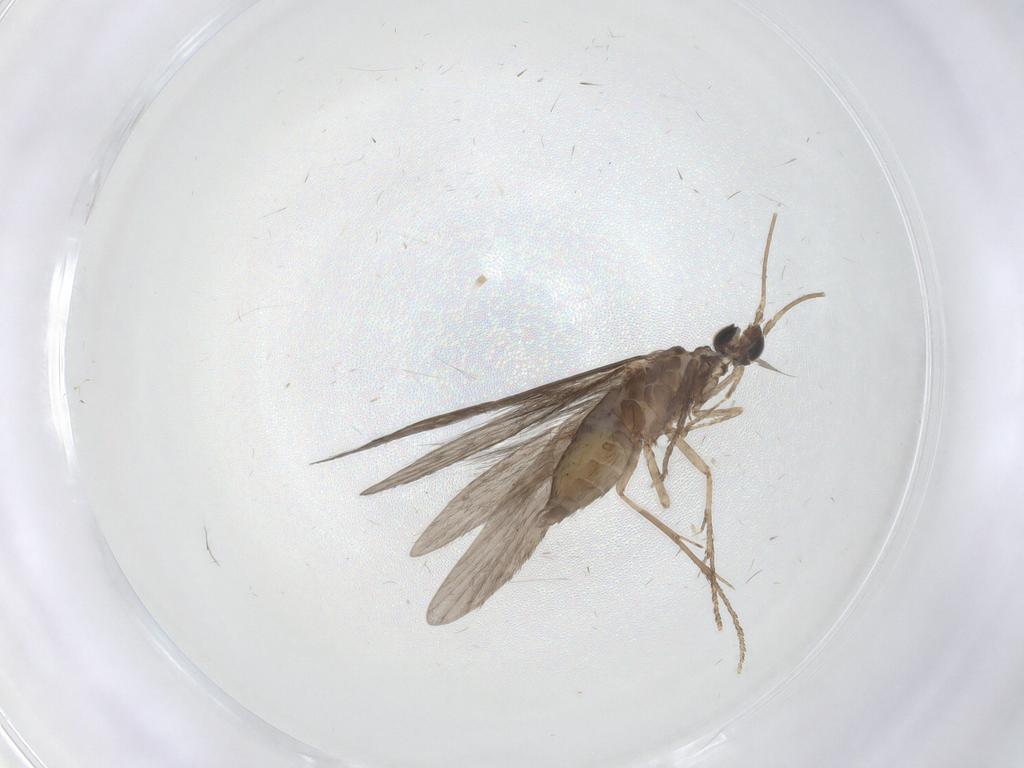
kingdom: Animalia
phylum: Arthropoda
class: Insecta
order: Trichoptera
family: Xiphocentronidae
